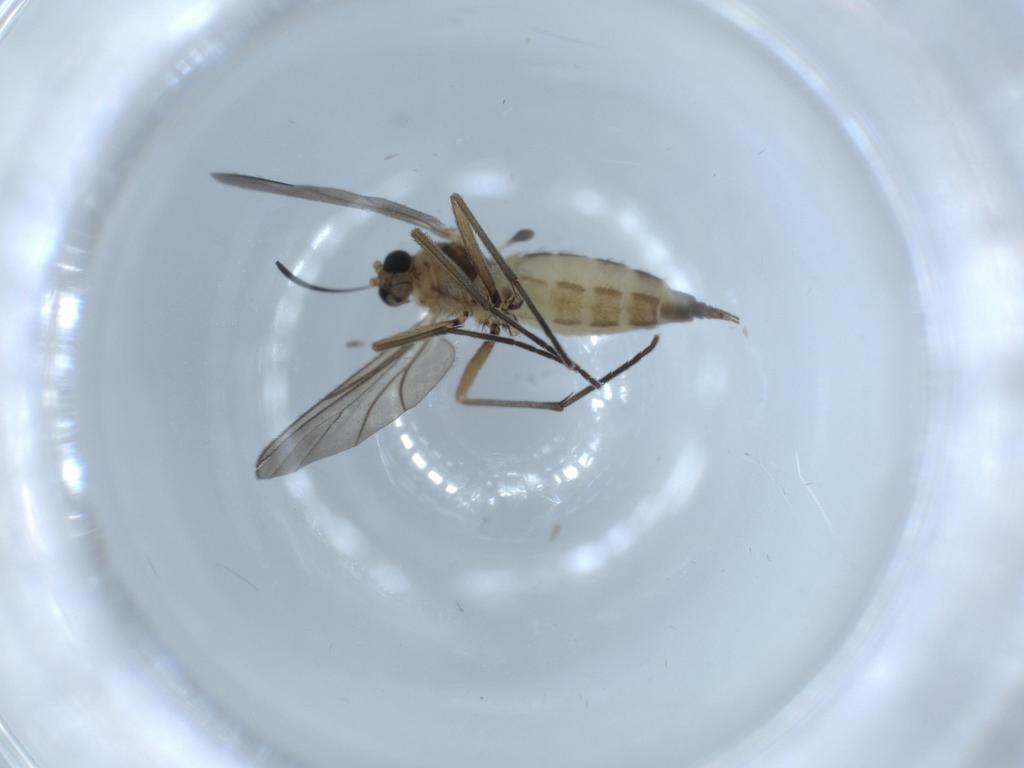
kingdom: Animalia
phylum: Arthropoda
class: Insecta
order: Diptera
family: Sciaridae
